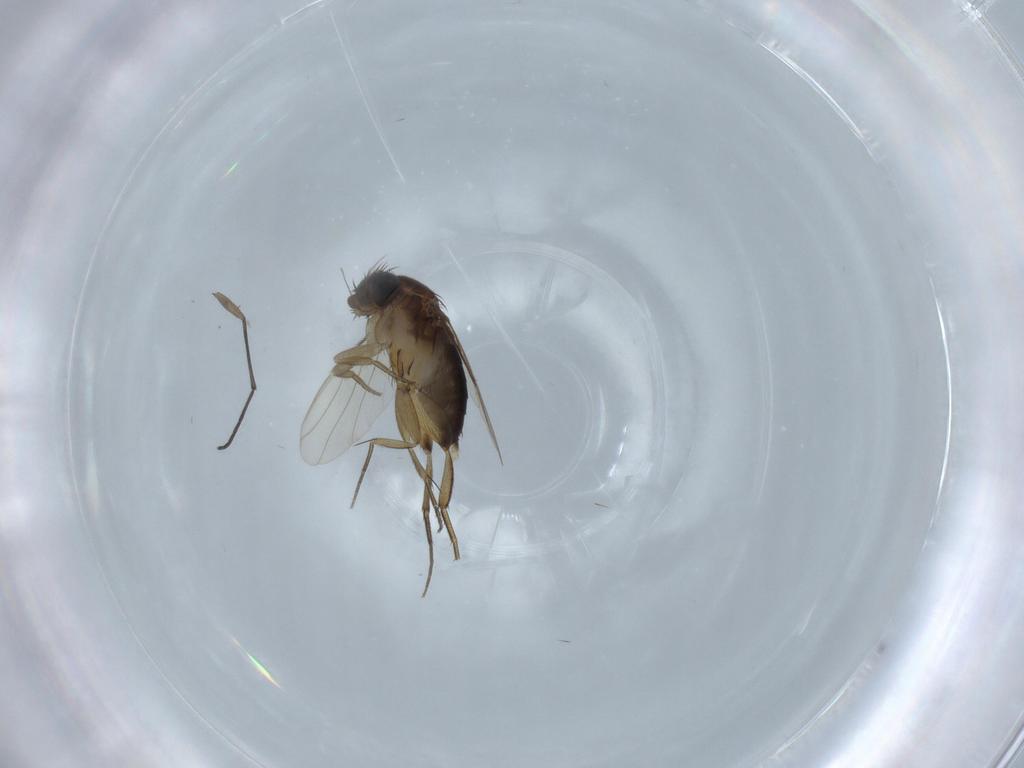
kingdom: Animalia
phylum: Arthropoda
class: Insecta
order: Diptera
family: Phoridae
